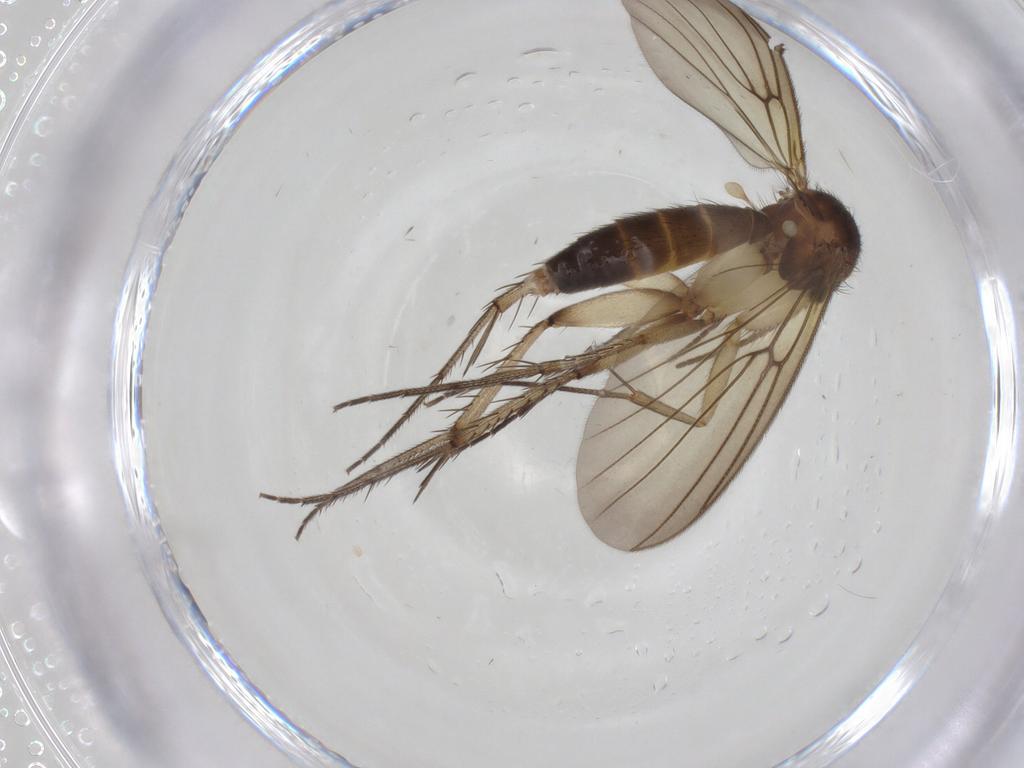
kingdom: Animalia
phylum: Arthropoda
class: Insecta
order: Diptera
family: Mycetophilidae
